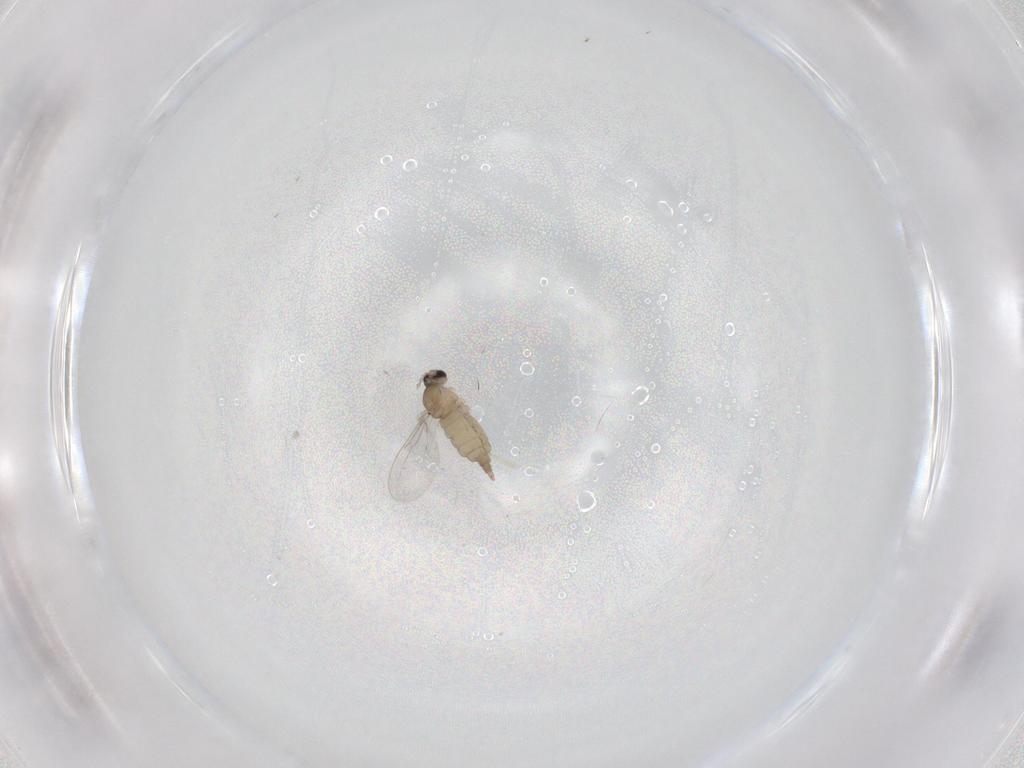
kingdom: Animalia
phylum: Arthropoda
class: Insecta
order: Diptera
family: Cecidomyiidae
